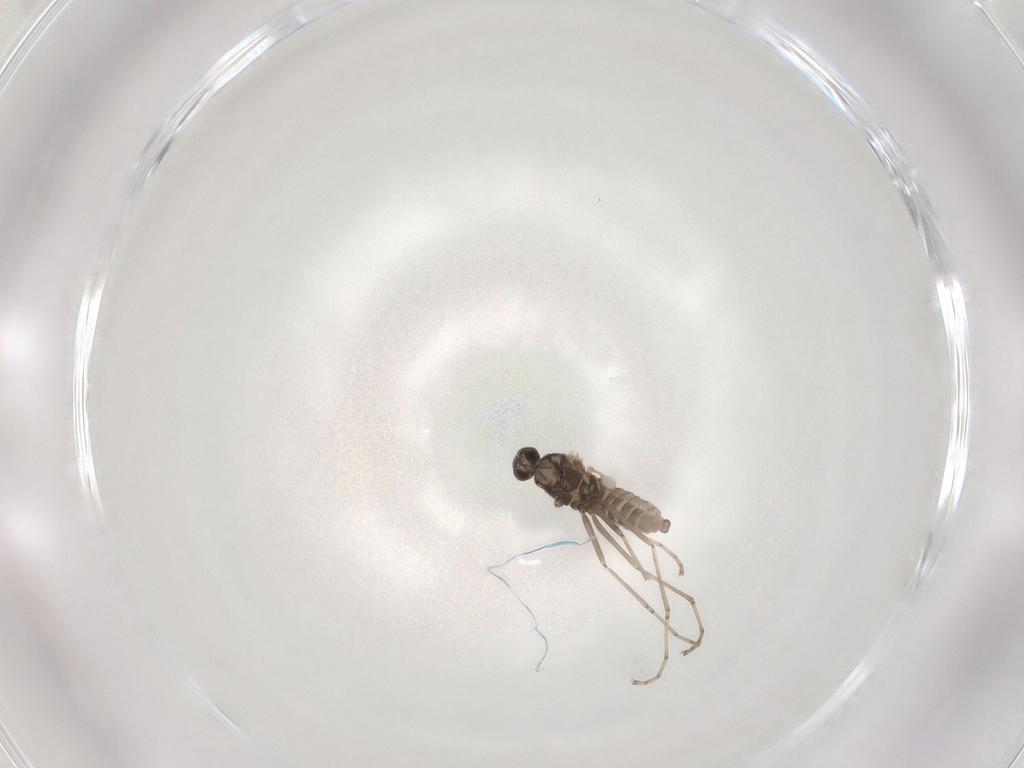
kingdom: Animalia
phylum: Arthropoda
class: Insecta
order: Diptera
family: Cecidomyiidae
